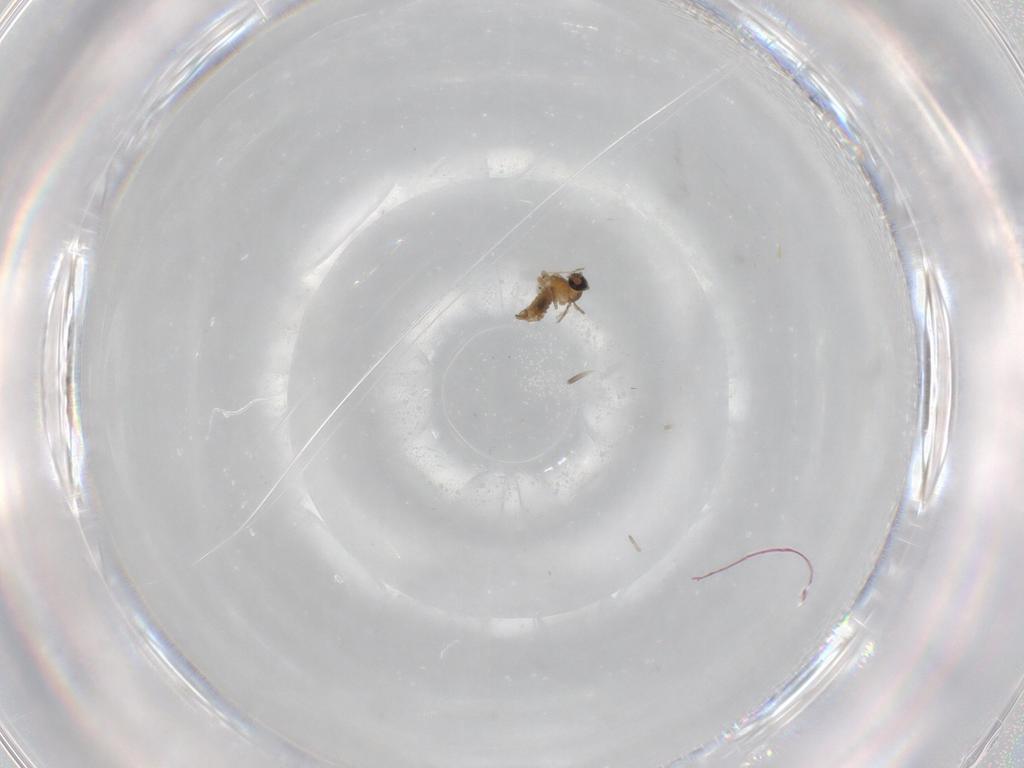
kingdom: Animalia
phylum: Arthropoda
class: Insecta
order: Diptera
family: Cecidomyiidae
